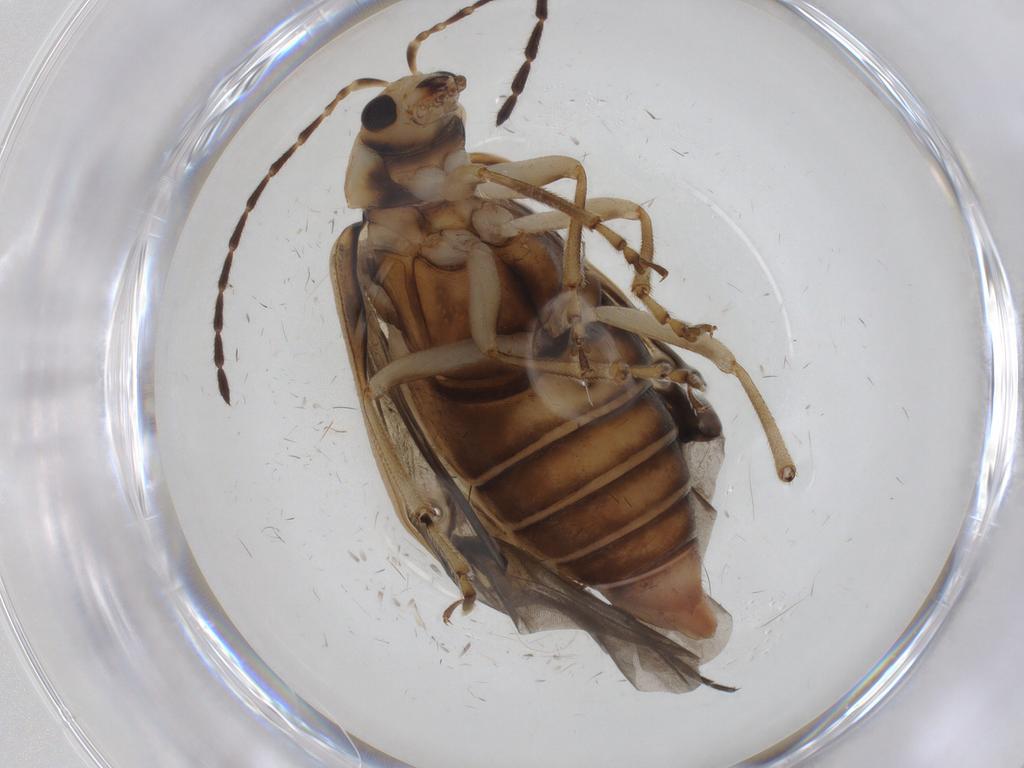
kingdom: Animalia
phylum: Arthropoda
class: Insecta
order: Coleoptera
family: Chrysomelidae
